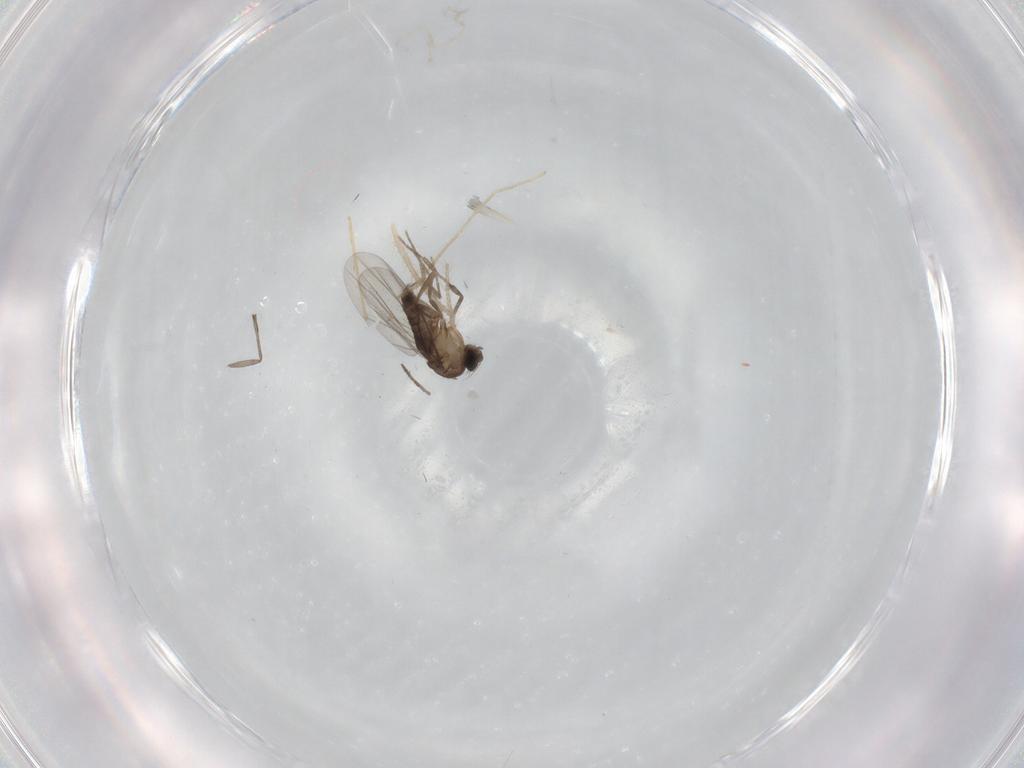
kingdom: Animalia
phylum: Arthropoda
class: Insecta
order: Diptera
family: Phoridae
